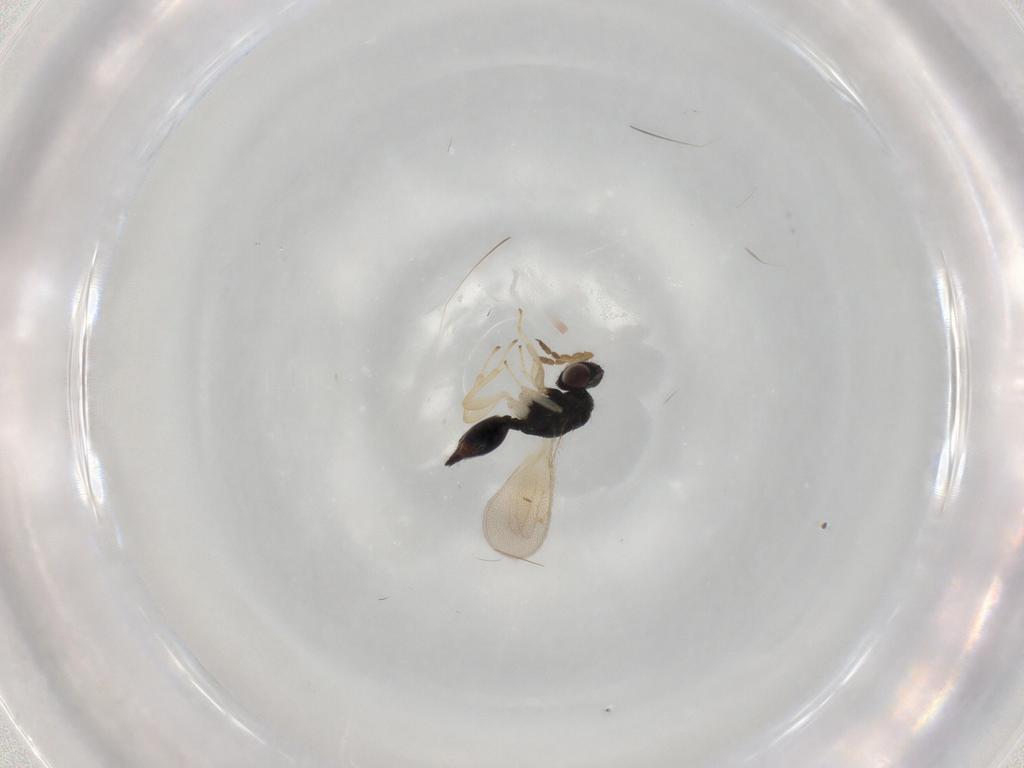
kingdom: Animalia
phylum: Arthropoda
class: Insecta
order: Hymenoptera
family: Eulophidae
